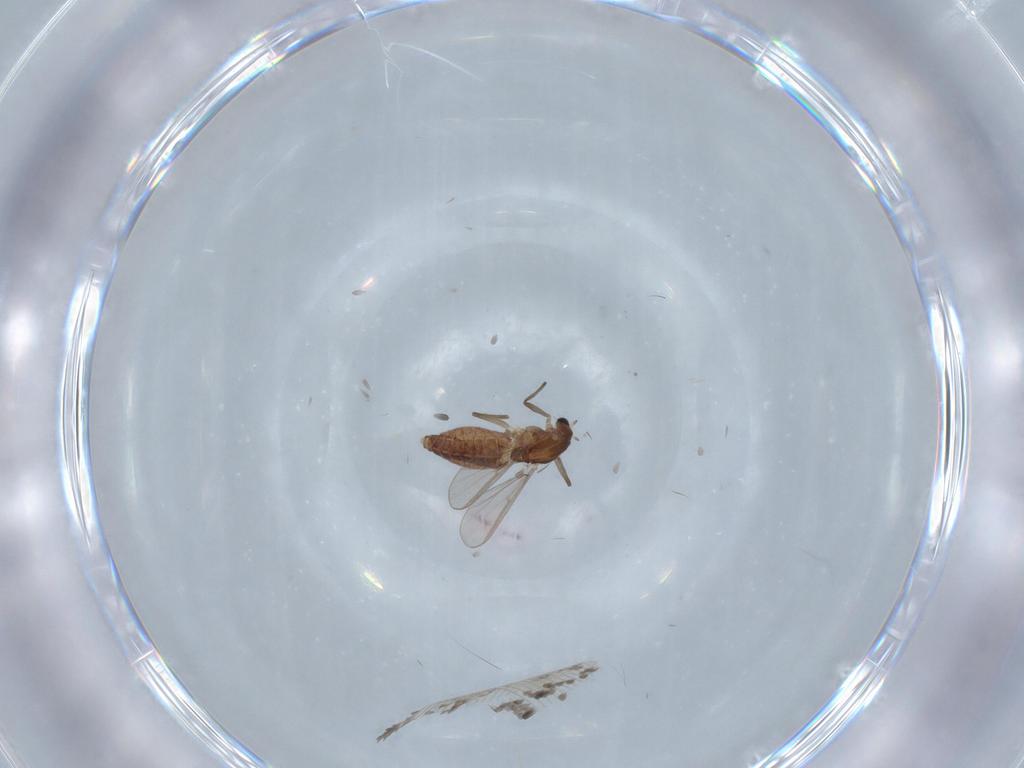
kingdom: Animalia
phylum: Arthropoda
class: Insecta
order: Diptera
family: Chironomidae
